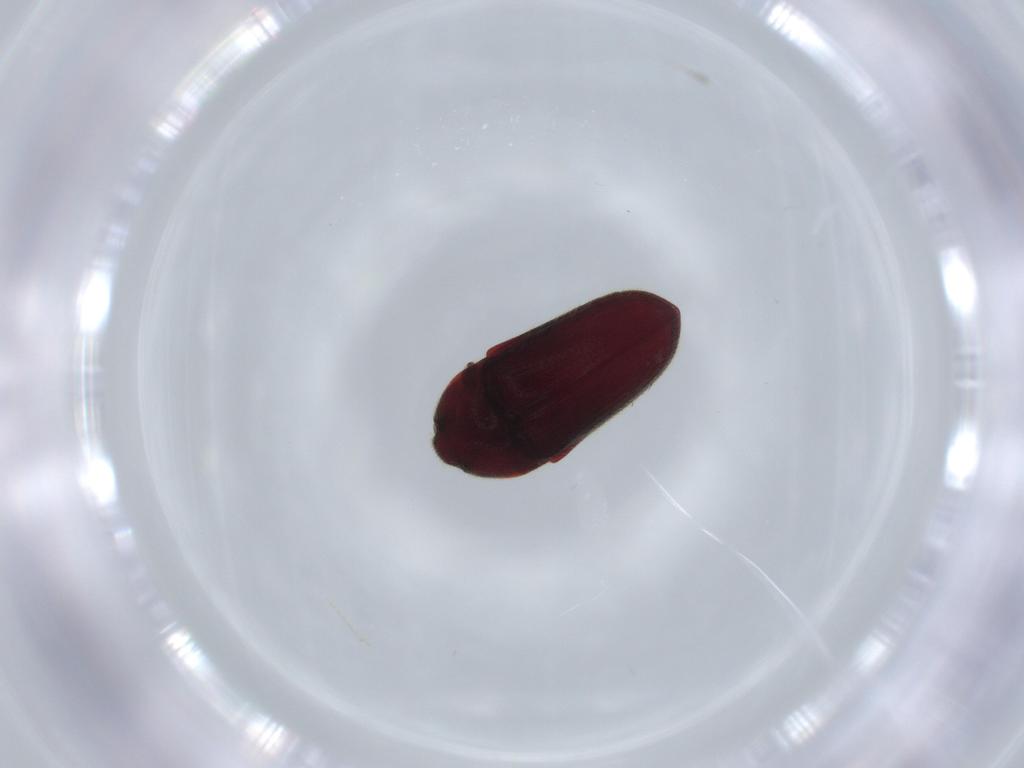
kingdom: Animalia
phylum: Arthropoda
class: Insecta
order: Coleoptera
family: Throscidae
